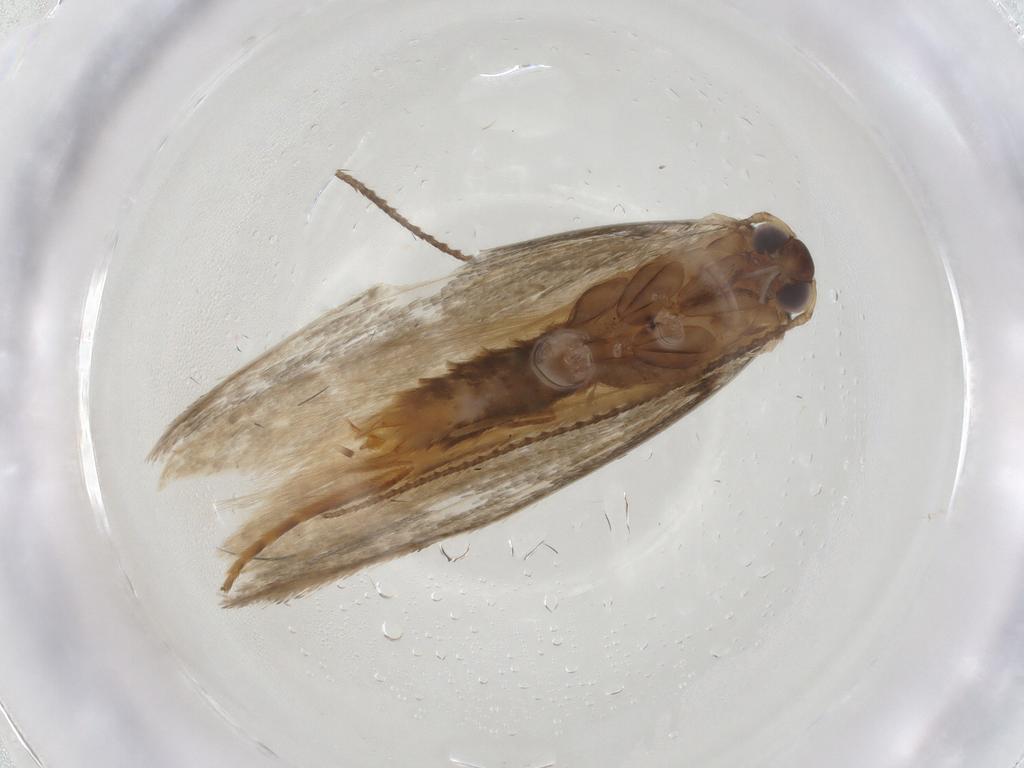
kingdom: Animalia
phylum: Arthropoda
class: Insecta
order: Lepidoptera
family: Erebidae
